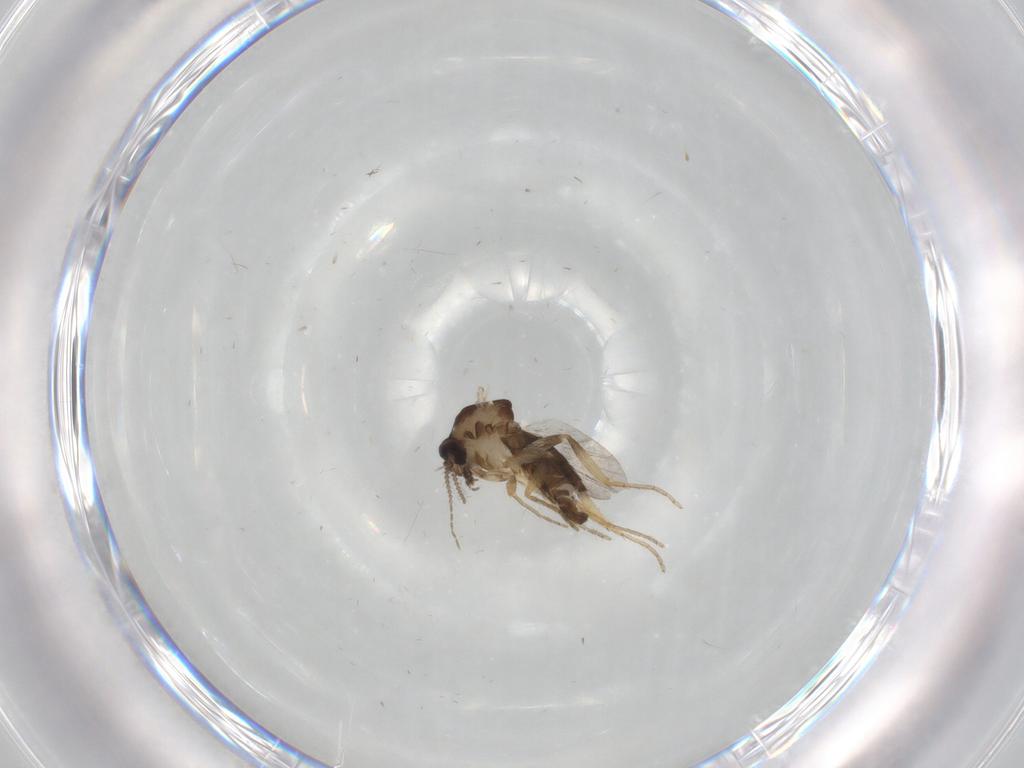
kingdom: Animalia
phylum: Arthropoda
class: Insecta
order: Diptera
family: Ceratopogonidae
